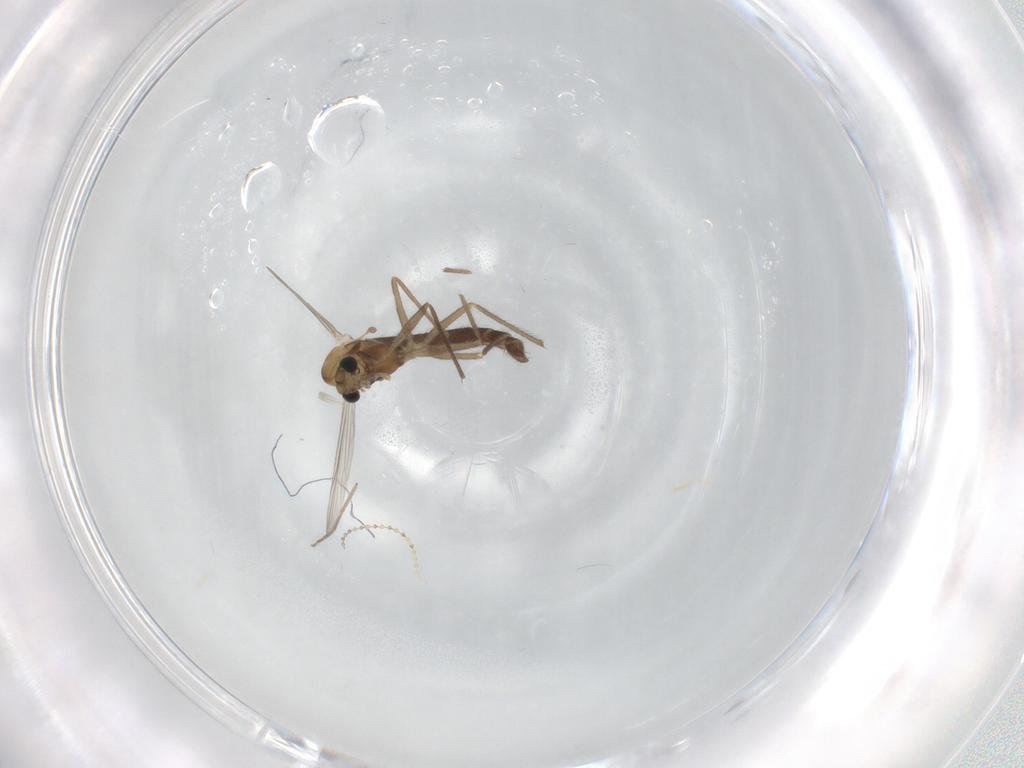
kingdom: Animalia
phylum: Arthropoda
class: Insecta
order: Diptera
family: Chironomidae
